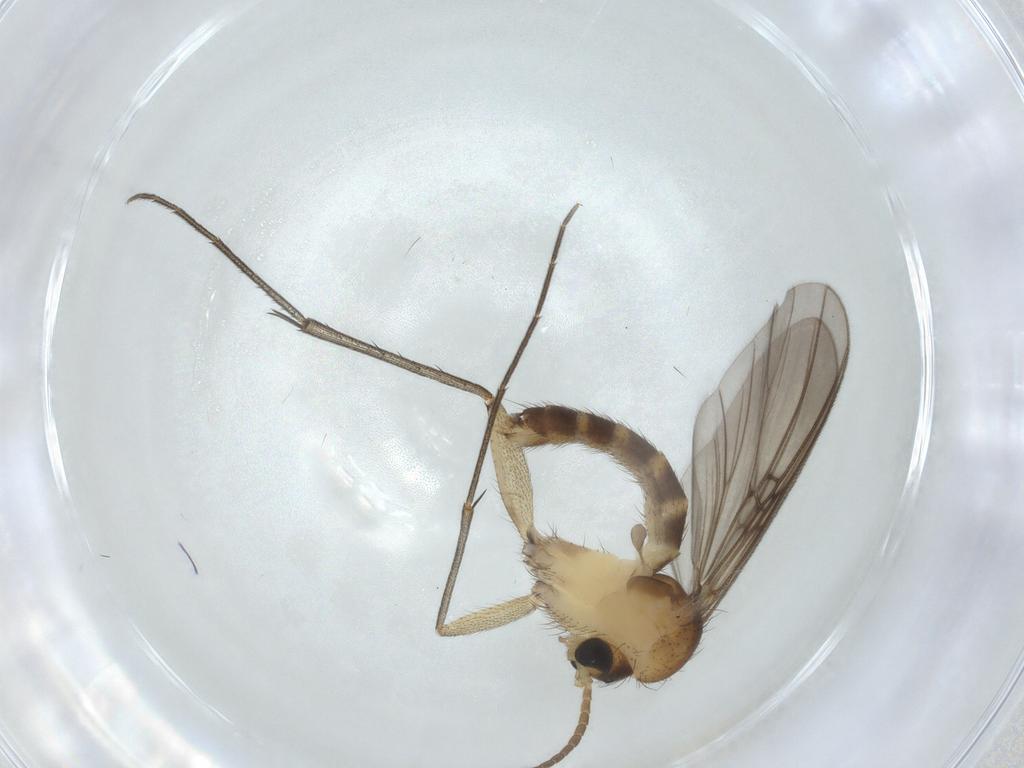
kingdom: Animalia
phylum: Arthropoda
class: Insecta
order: Diptera
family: Mycetophilidae
